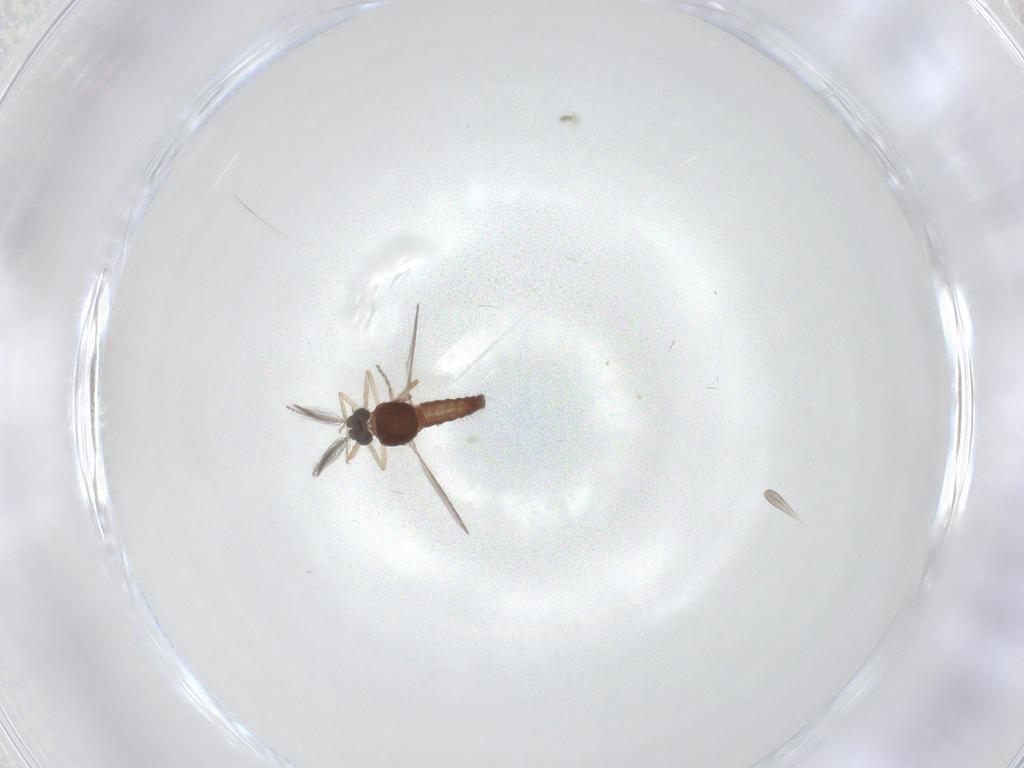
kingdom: Animalia
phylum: Arthropoda
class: Insecta
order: Diptera
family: Ceratopogonidae
